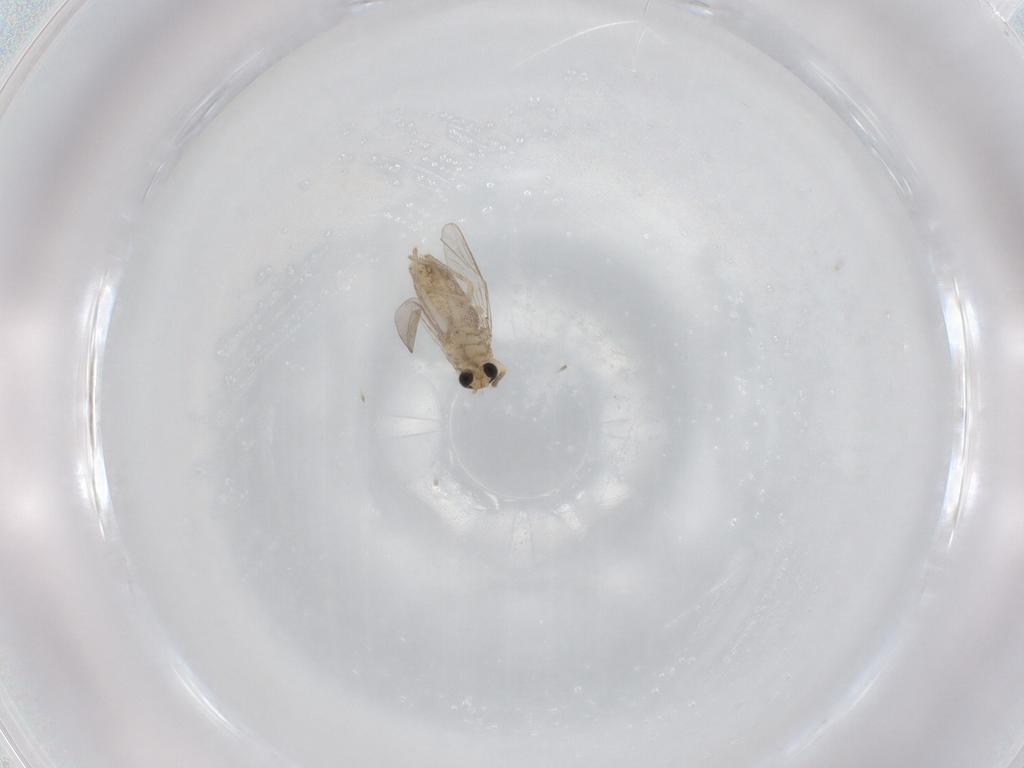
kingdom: Animalia
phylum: Arthropoda
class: Insecta
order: Diptera
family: Chironomidae
